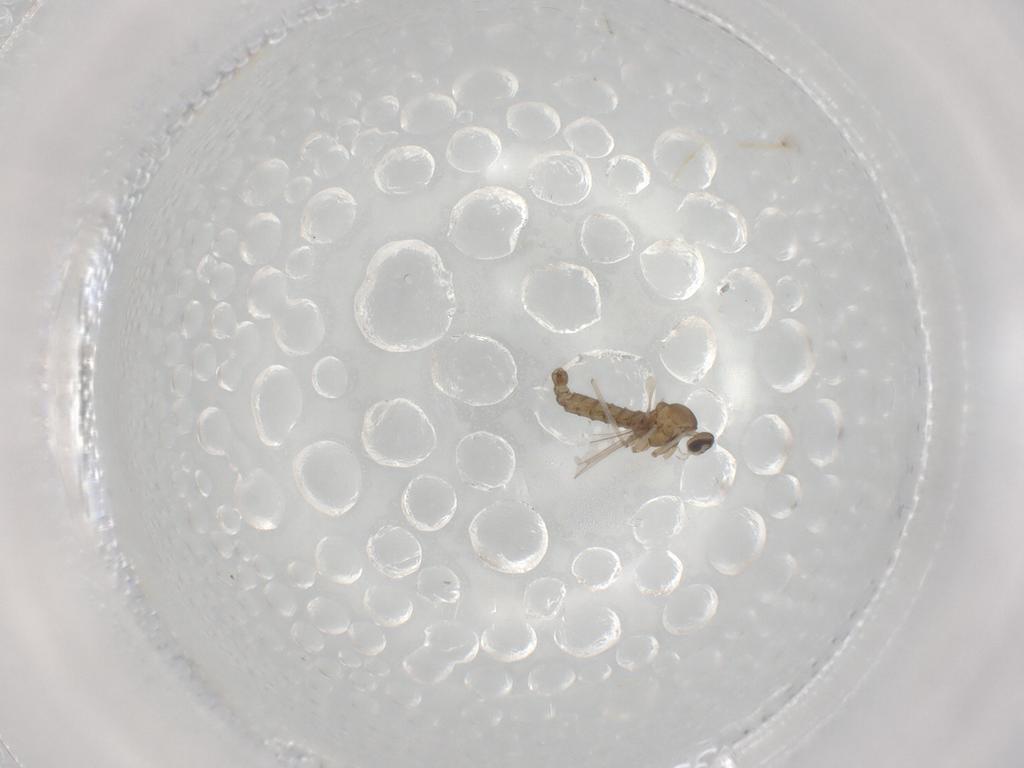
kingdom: Animalia
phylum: Arthropoda
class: Insecta
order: Diptera
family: Cecidomyiidae
